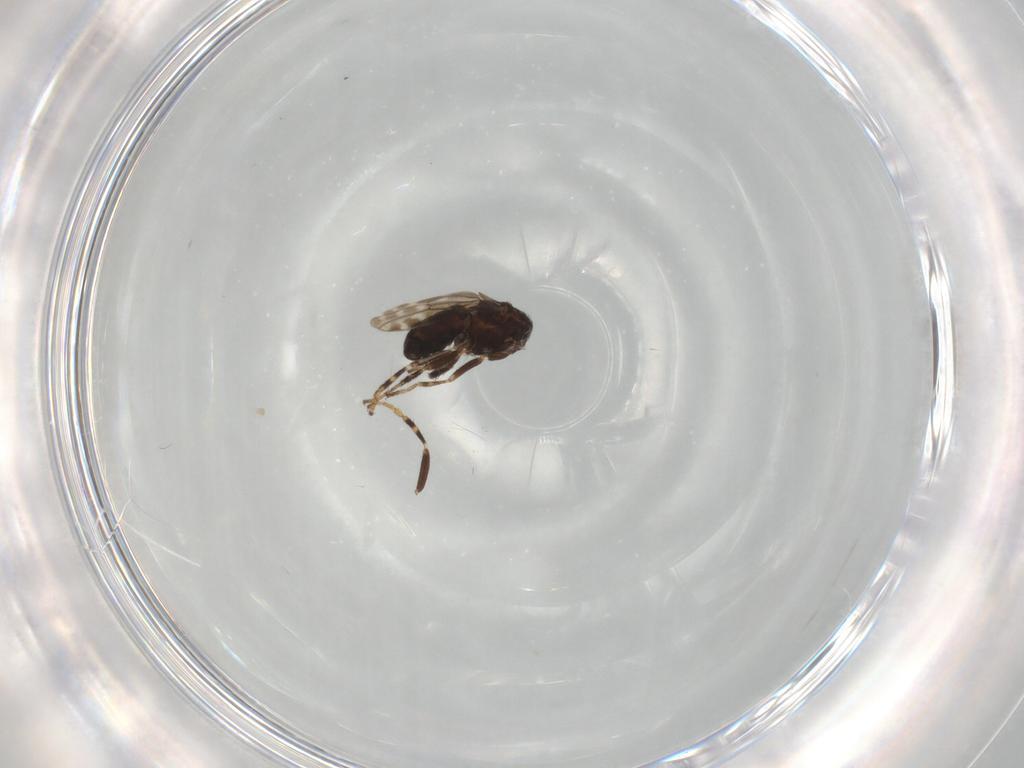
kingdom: Animalia
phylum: Arthropoda
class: Insecta
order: Diptera
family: Sphaeroceridae
